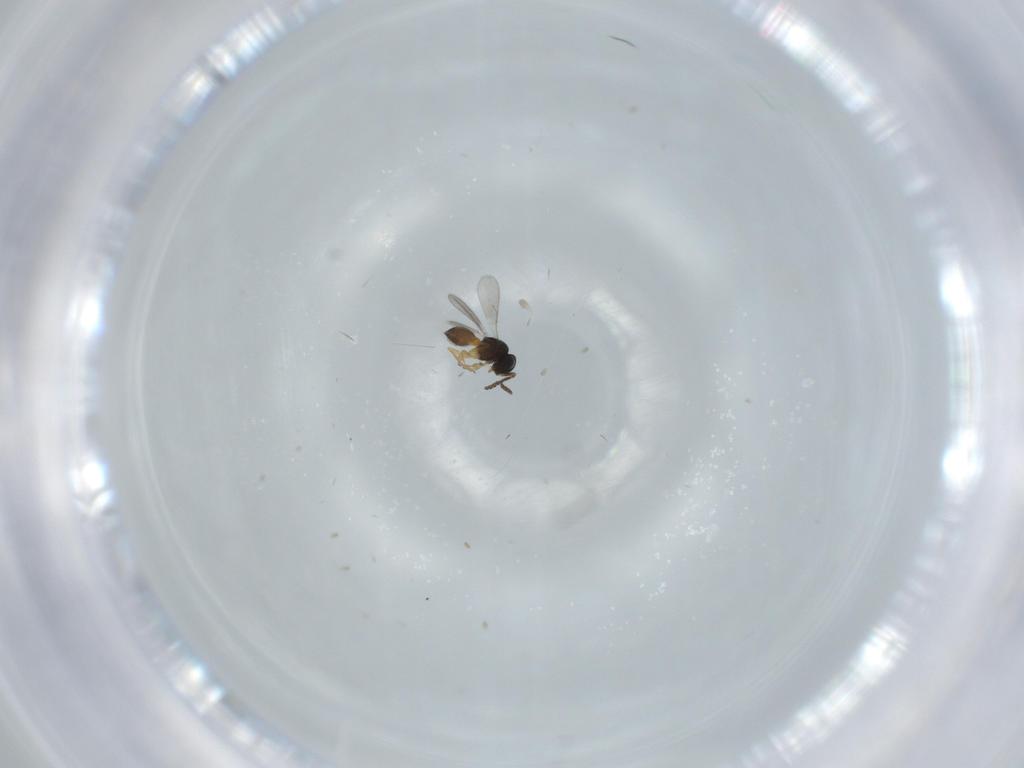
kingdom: Animalia
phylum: Arthropoda
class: Insecta
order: Hymenoptera
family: Scelionidae
